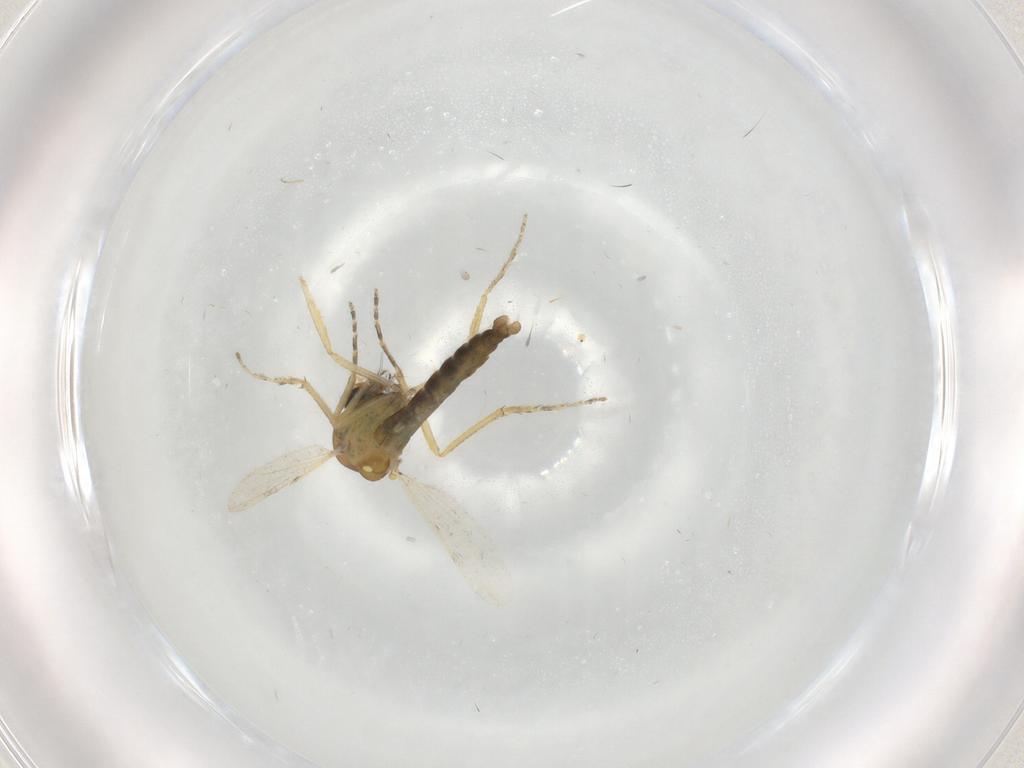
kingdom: Animalia
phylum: Arthropoda
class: Insecta
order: Diptera
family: Ceratopogonidae
